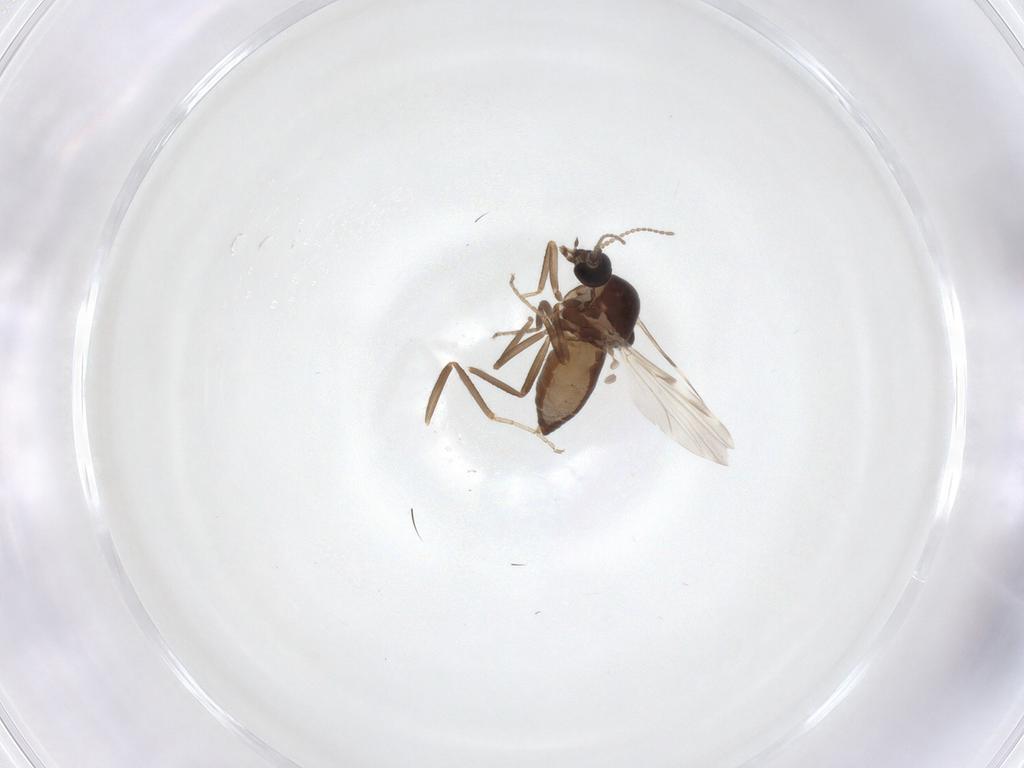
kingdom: Animalia
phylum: Arthropoda
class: Insecta
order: Diptera
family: Ceratopogonidae
